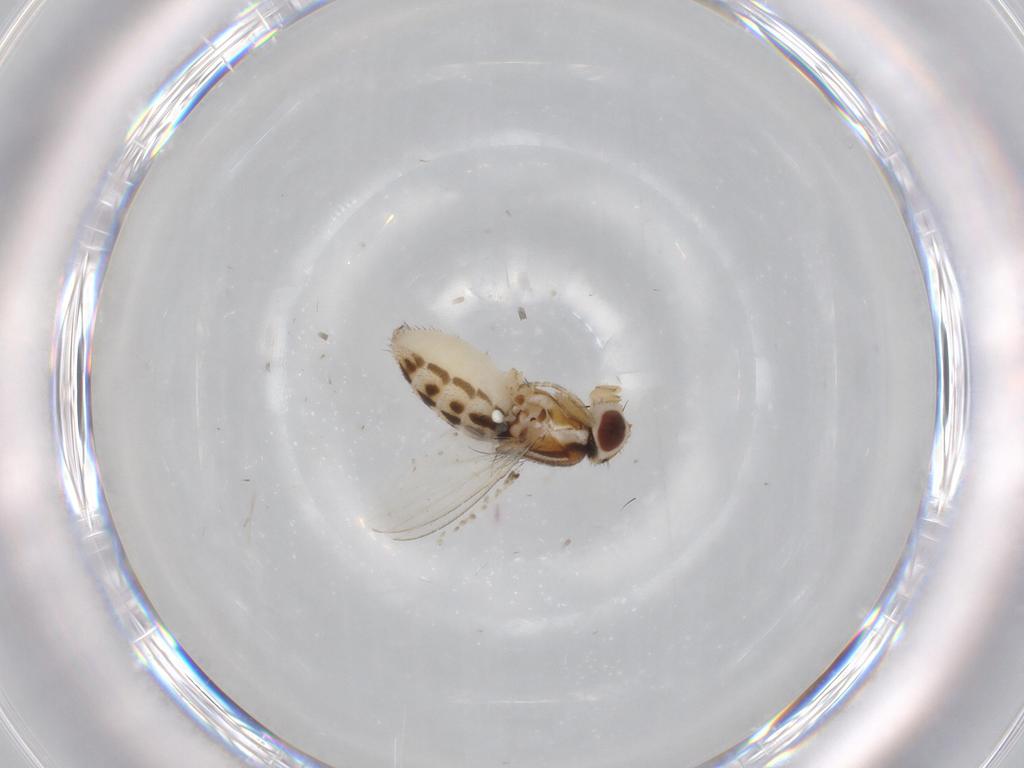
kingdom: Animalia
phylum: Arthropoda
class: Insecta
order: Diptera
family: Milichiidae
